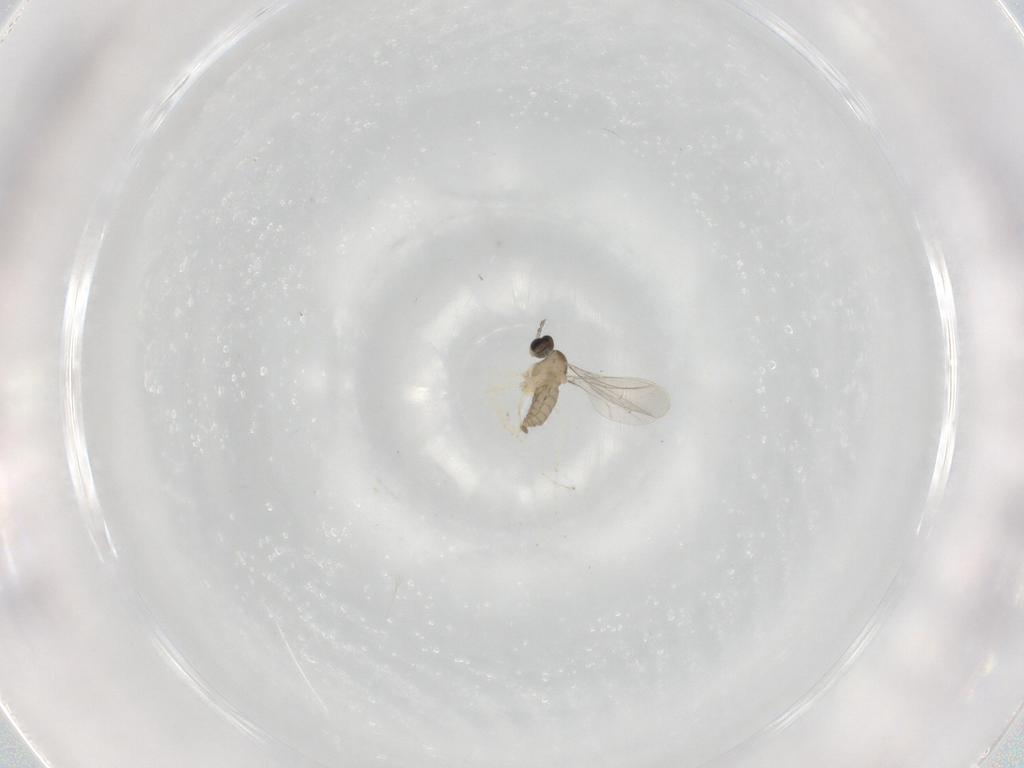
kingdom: Animalia
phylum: Arthropoda
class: Insecta
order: Diptera
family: Cecidomyiidae
